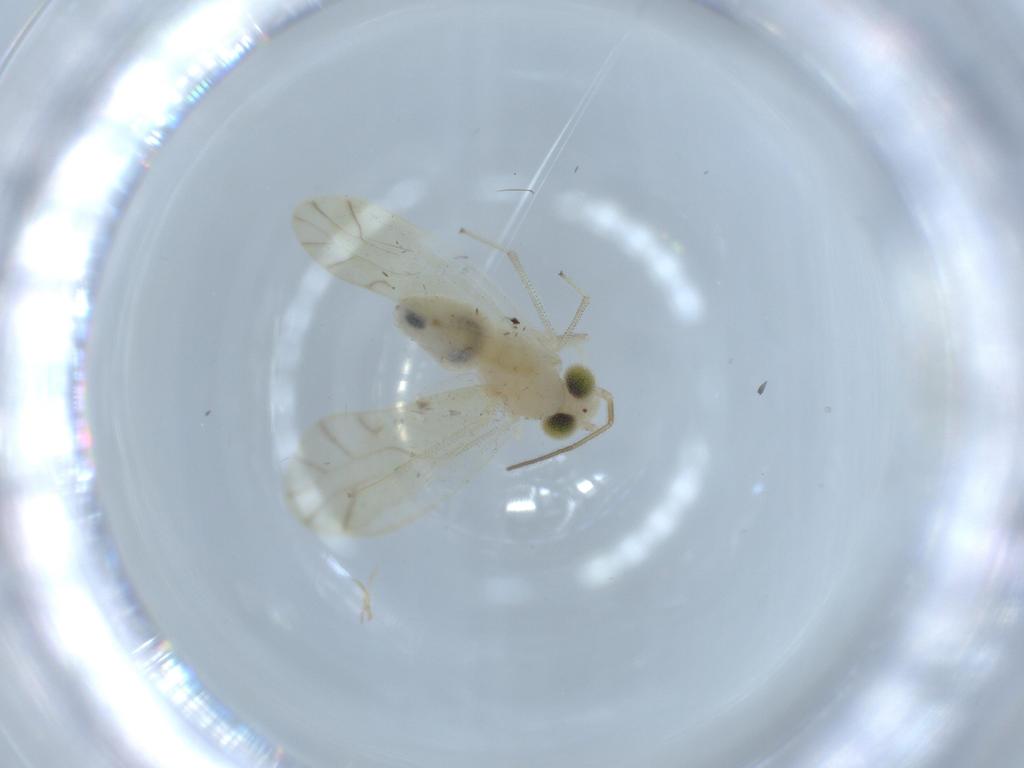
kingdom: Animalia
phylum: Arthropoda
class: Insecta
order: Psocodea
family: Caeciliusidae
